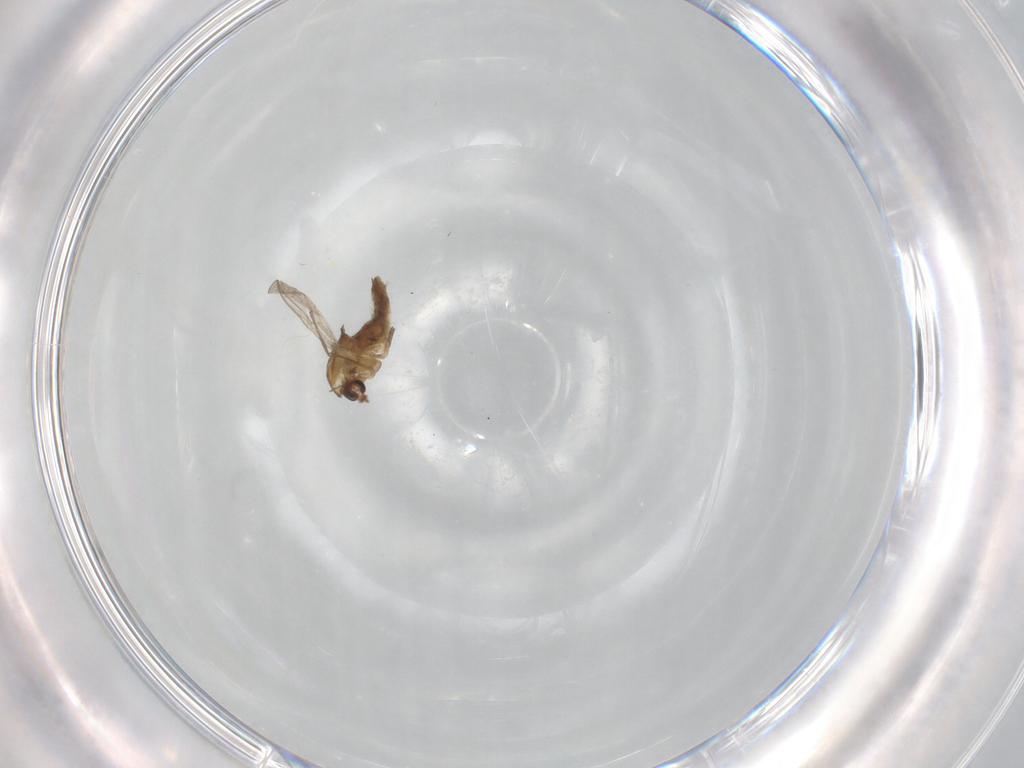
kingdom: Animalia
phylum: Arthropoda
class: Insecta
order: Diptera
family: Chironomidae
